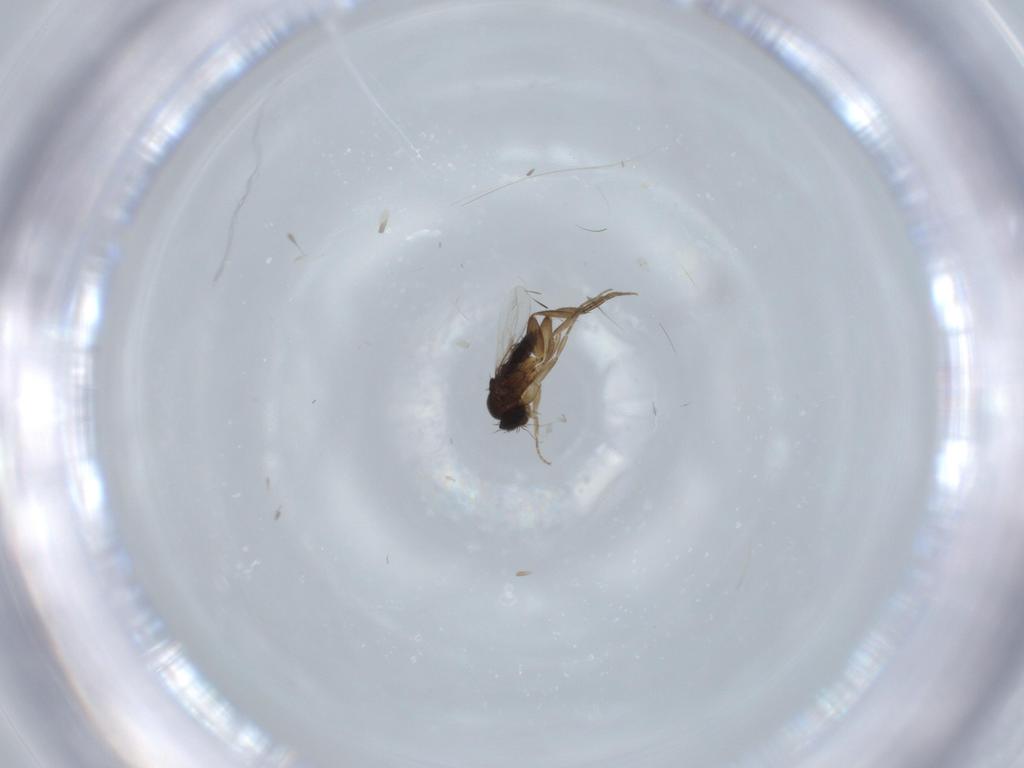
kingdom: Animalia
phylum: Arthropoda
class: Insecta
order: Diptera
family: Phoridae
